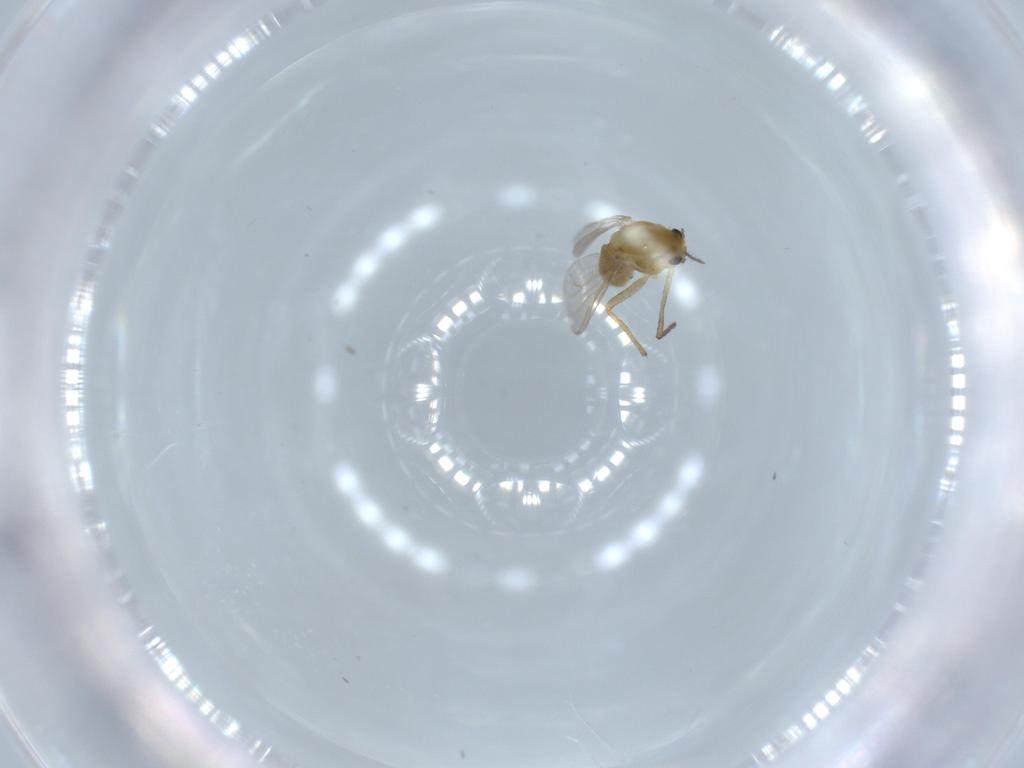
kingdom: Animalia
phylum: Arthropoda
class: Insecta
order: Diptera
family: Chironomidae
